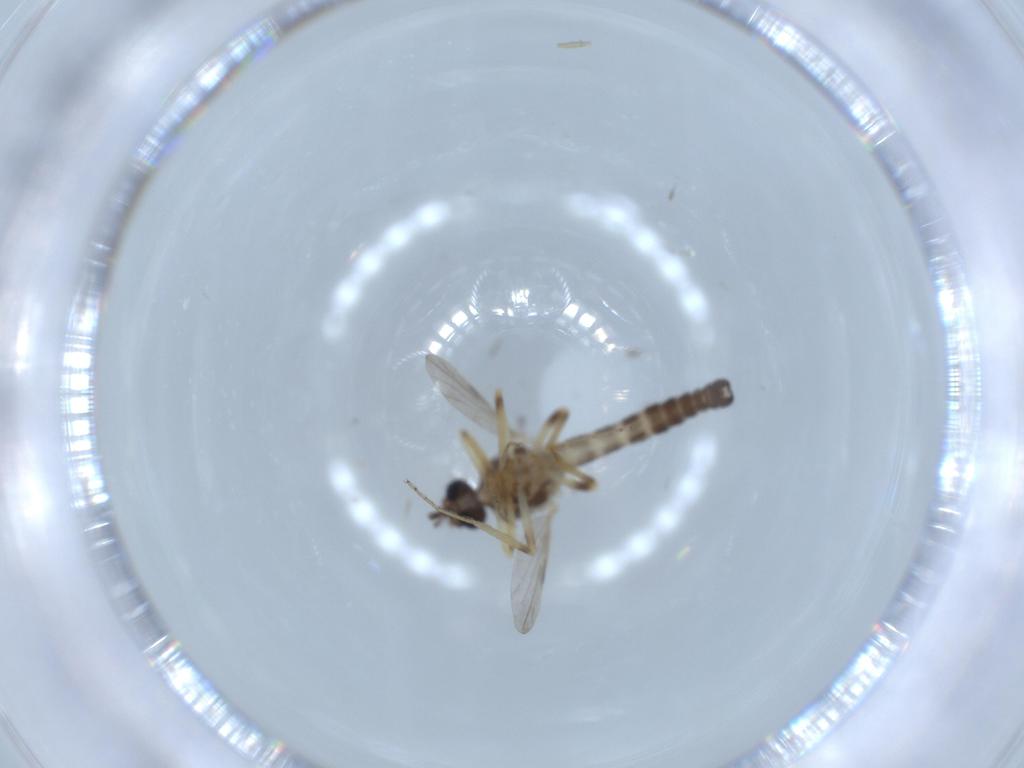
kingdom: Animalia
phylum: Arthropoda
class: Insecta
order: Diptera
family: Ceratopogonidae
